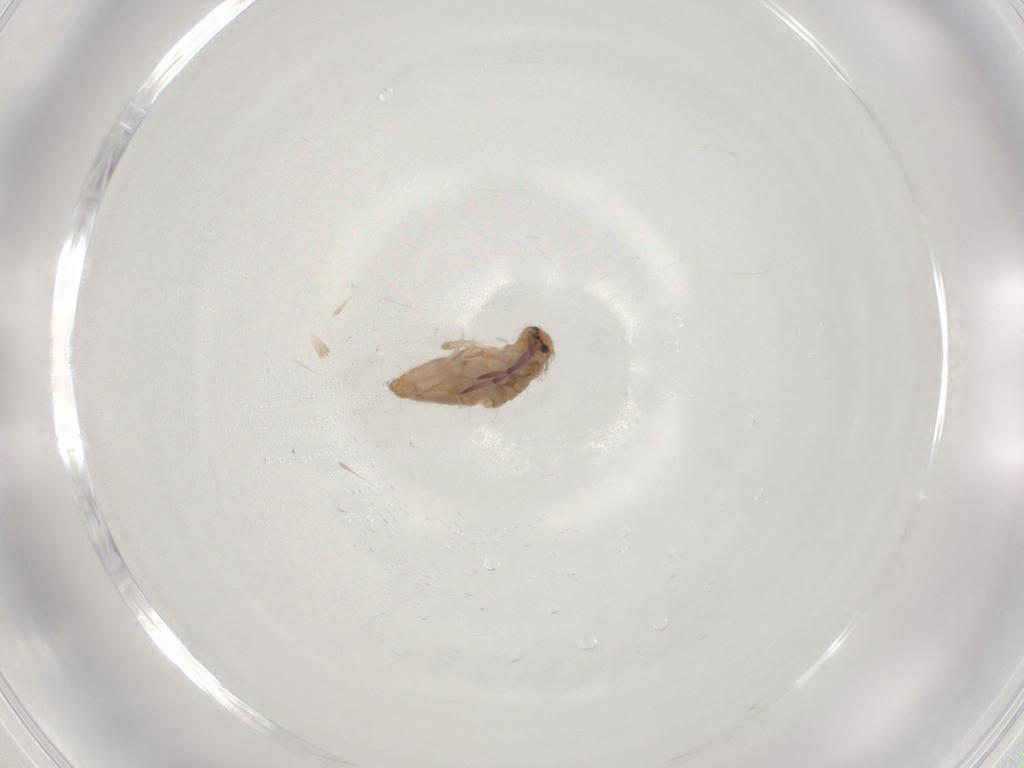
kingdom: Animalia
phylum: Arthropoda
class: Collembola
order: Entomobryomorpha
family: Entomobryidae
